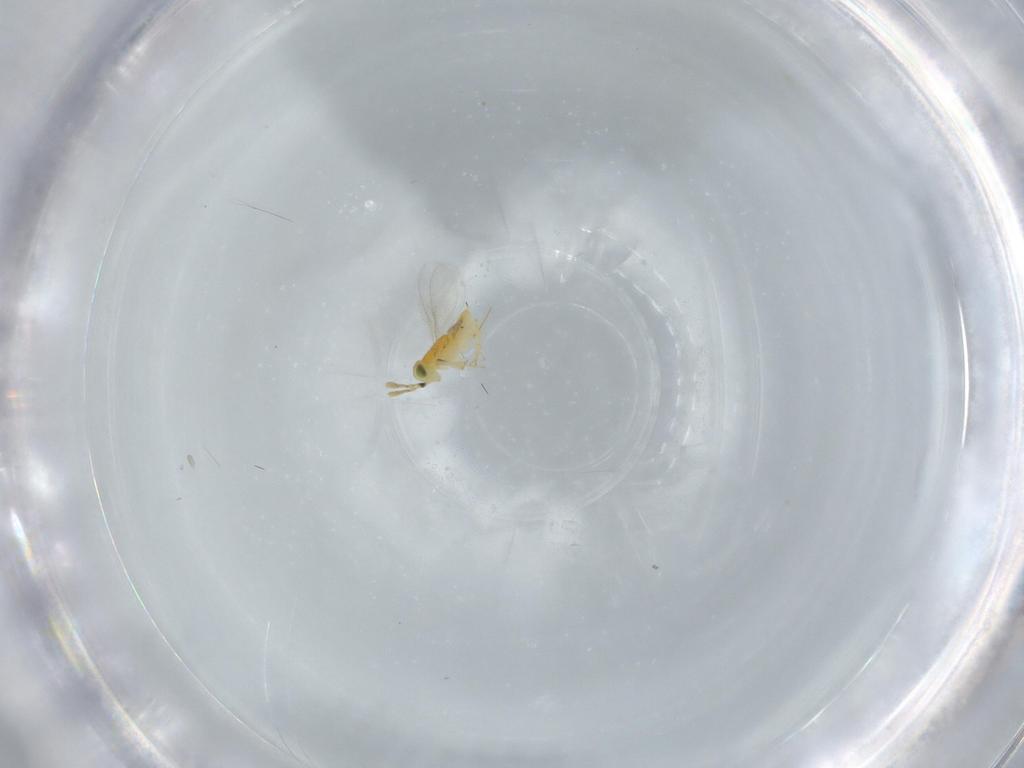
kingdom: Animalia
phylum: Arthropoda
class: Insecta
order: Hymenoptera
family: Encyrtidae
